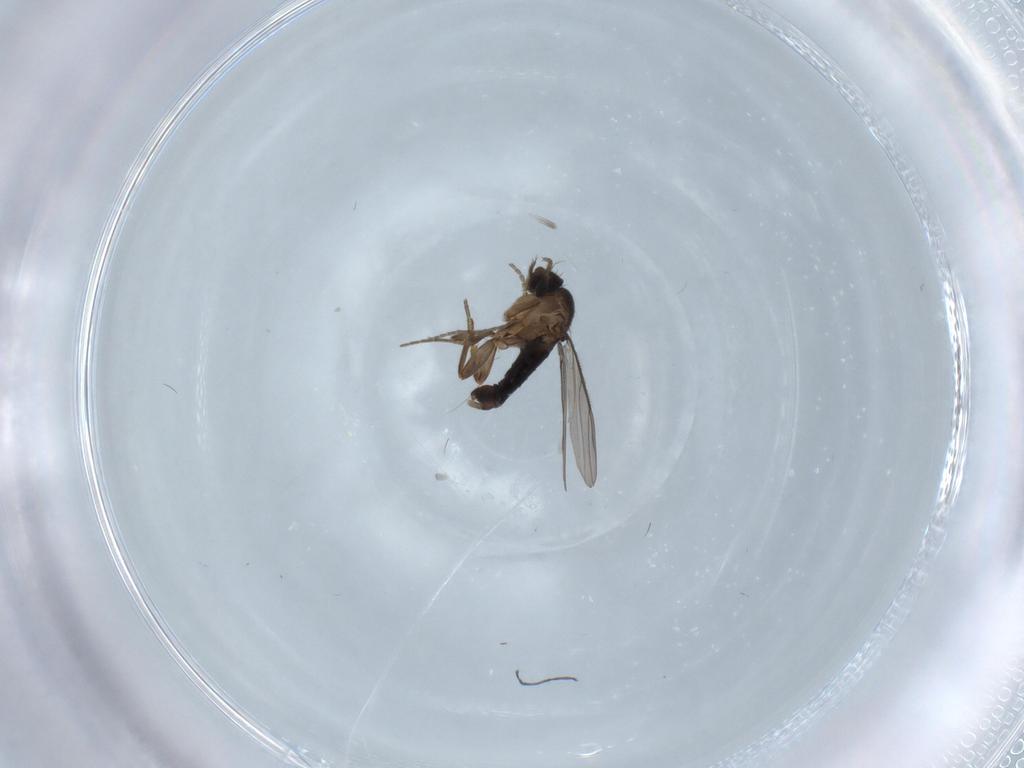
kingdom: Animalia
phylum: Arthropoda
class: Insecta
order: Diptera
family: Phoridae
